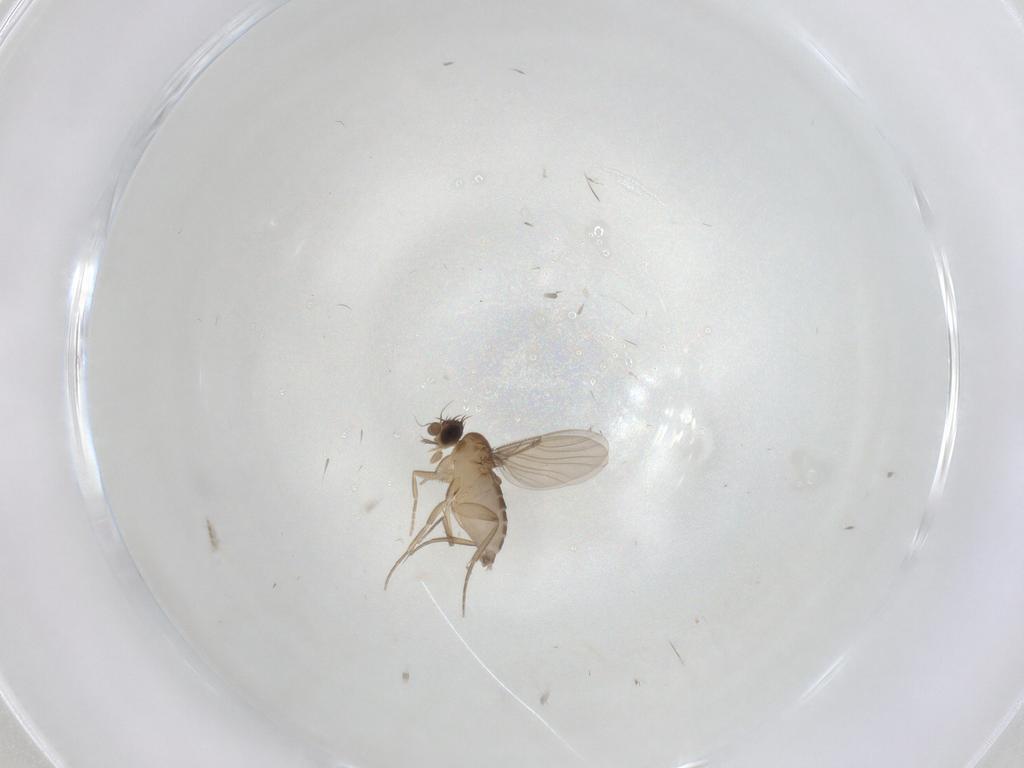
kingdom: Animalia
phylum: Arthropoda
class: Insecta
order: Diptera
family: Phoridae
